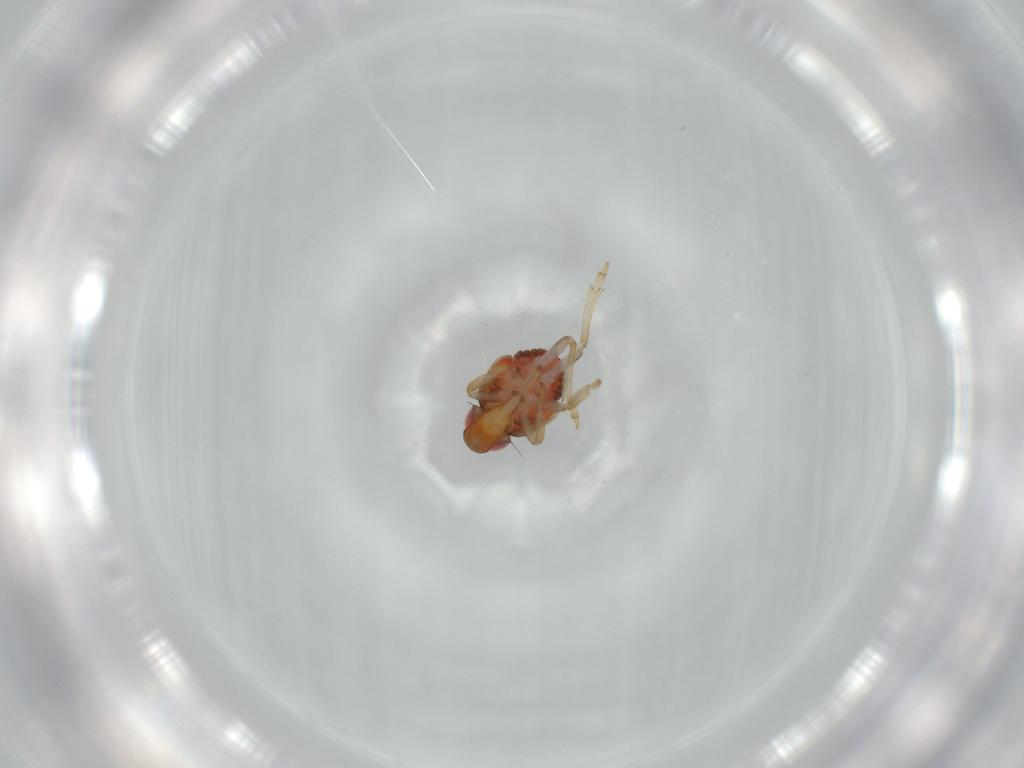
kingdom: Animalia
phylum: Arthropoda
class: Insecta
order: Hemiptera
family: Issidae
